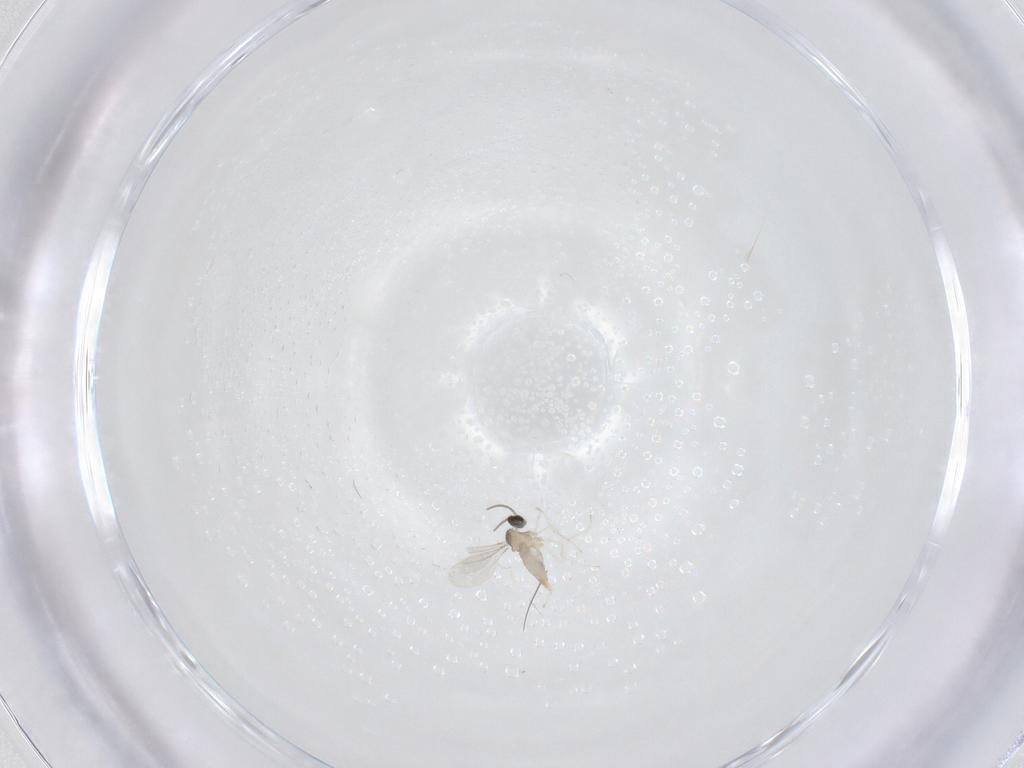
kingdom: Animalia
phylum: Arthropoda
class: Insecta
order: Diptera
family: Cecidomyiidae
